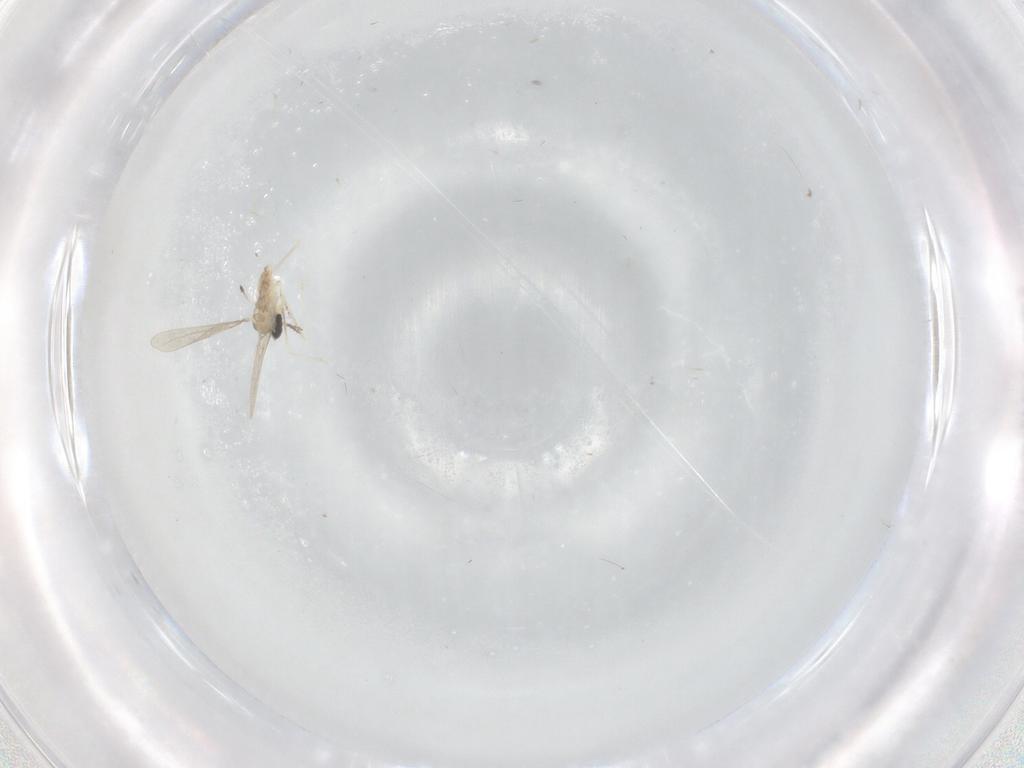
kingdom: Animalia
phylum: Arthropoda
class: Insecta
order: Diptera
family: Cecidomyiidae
